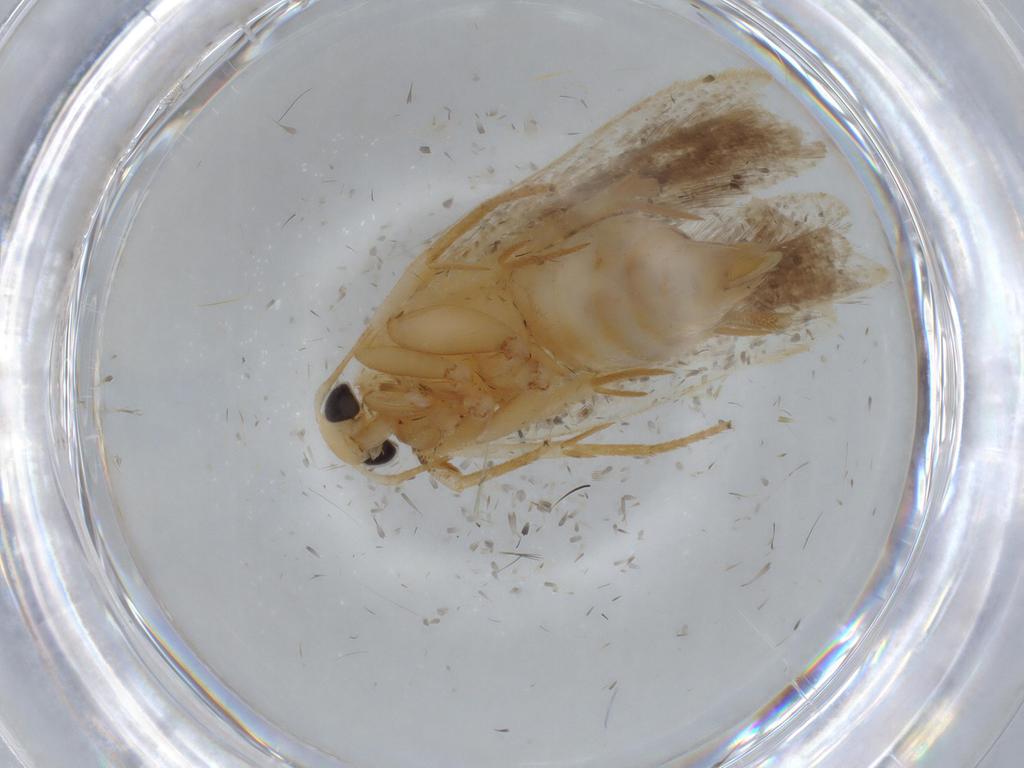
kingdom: Animalia
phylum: Arthropoda
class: Insecta
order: Lepidoptera
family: Gelechiidae
